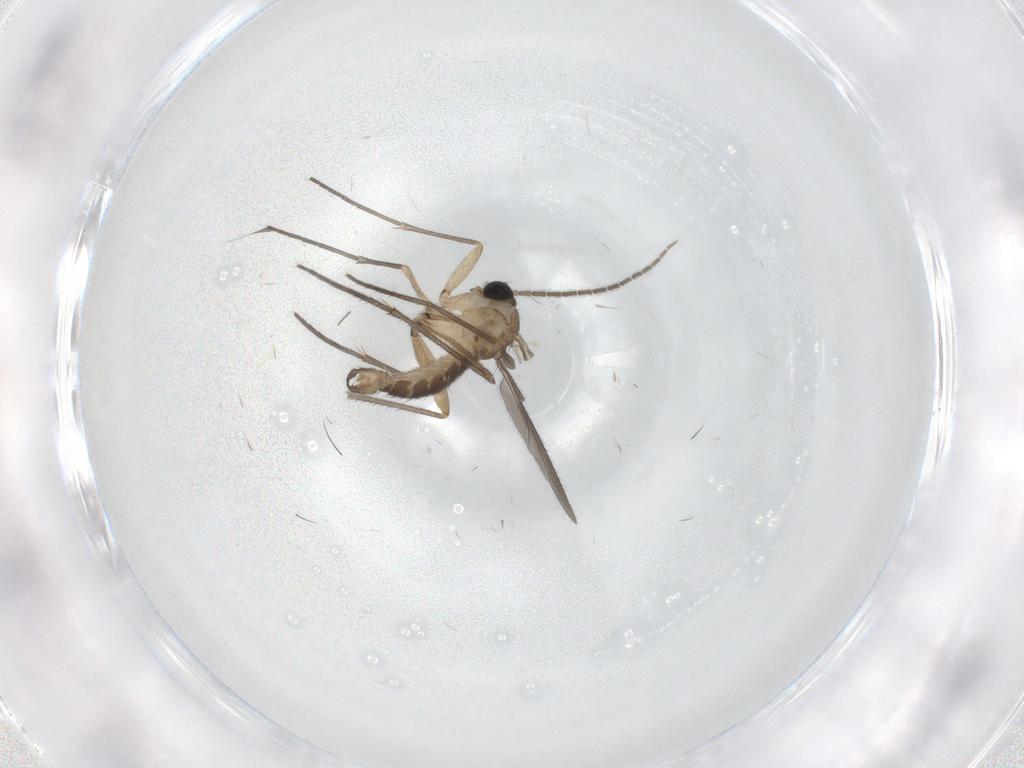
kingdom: Animalia
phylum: Arthropoda
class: Insecta
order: Diptera
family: Sciaridae
